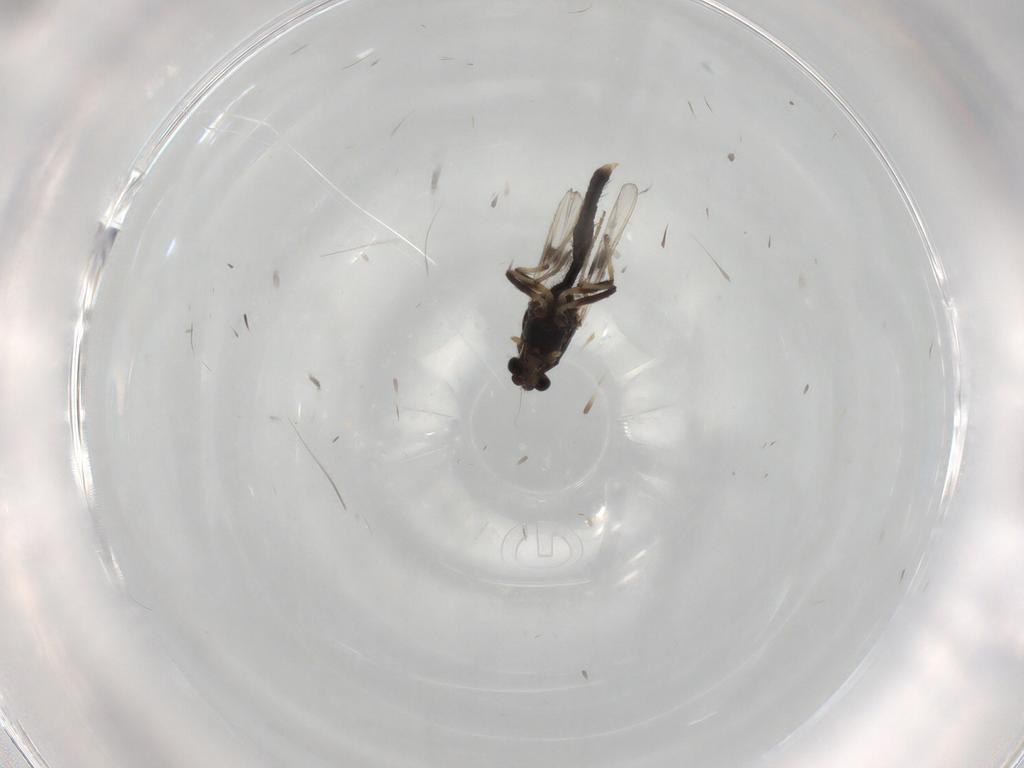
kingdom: Animalia
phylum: Arthropoda
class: Insecta
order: Diptera
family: Chironomidae
